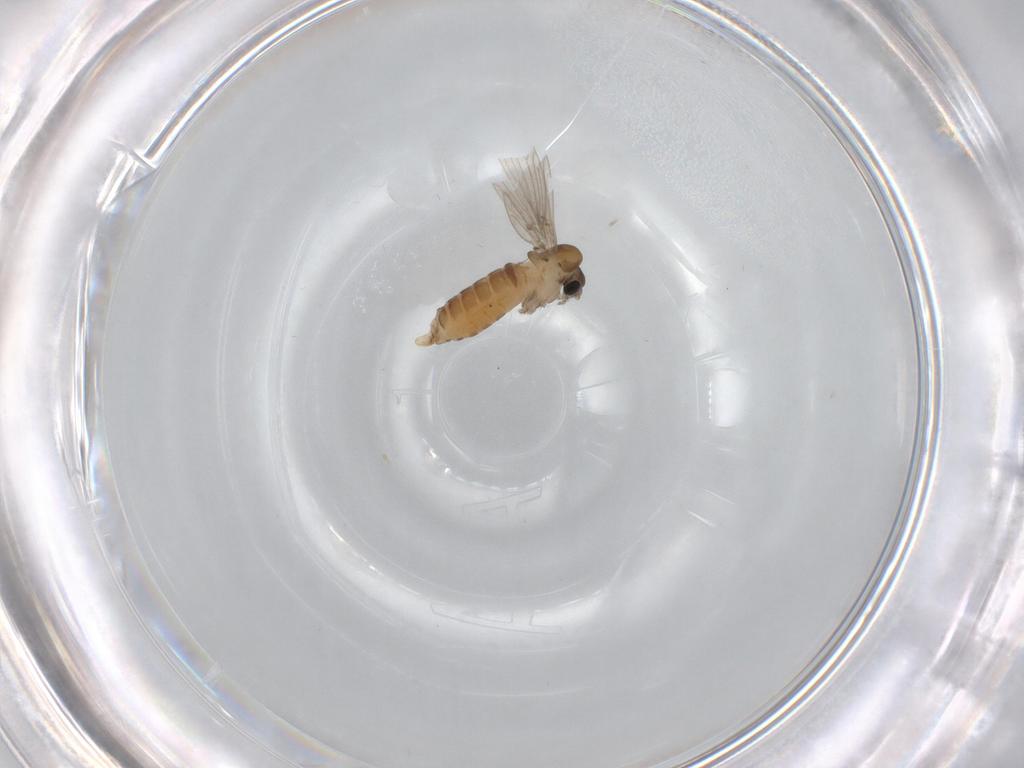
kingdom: Animalia
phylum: Arthropoda
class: Insecta
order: Diptera
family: Psychodidae
